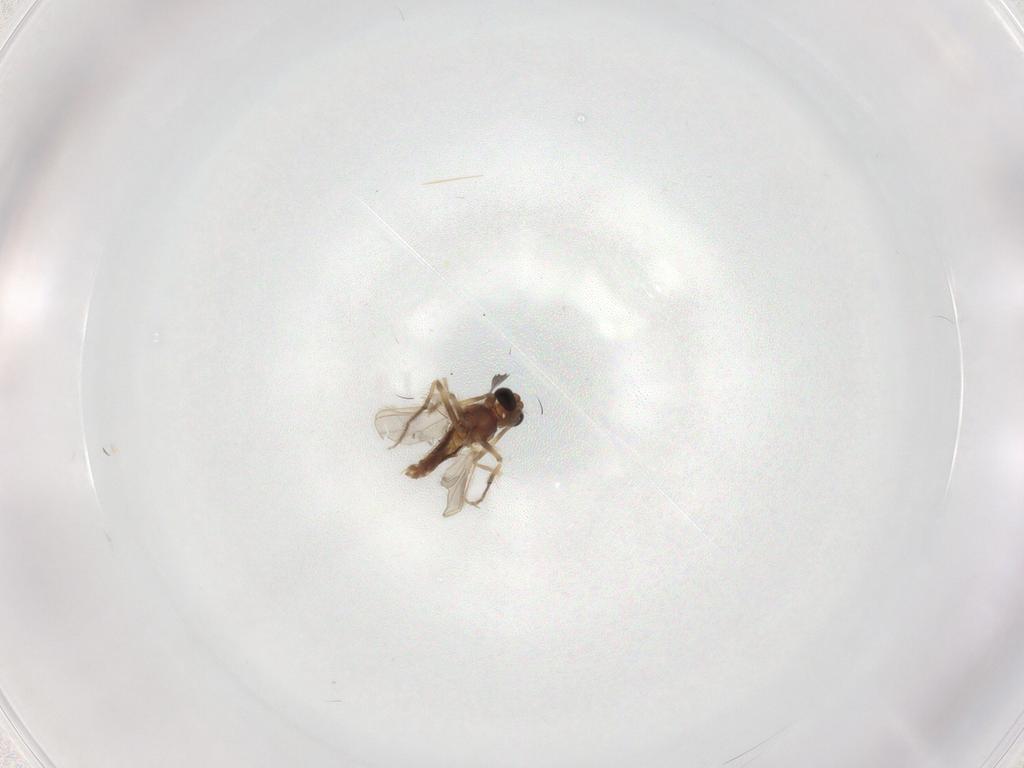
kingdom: Animalia
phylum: Arthropoda
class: Insecta
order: Diptera
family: Chironomidae
